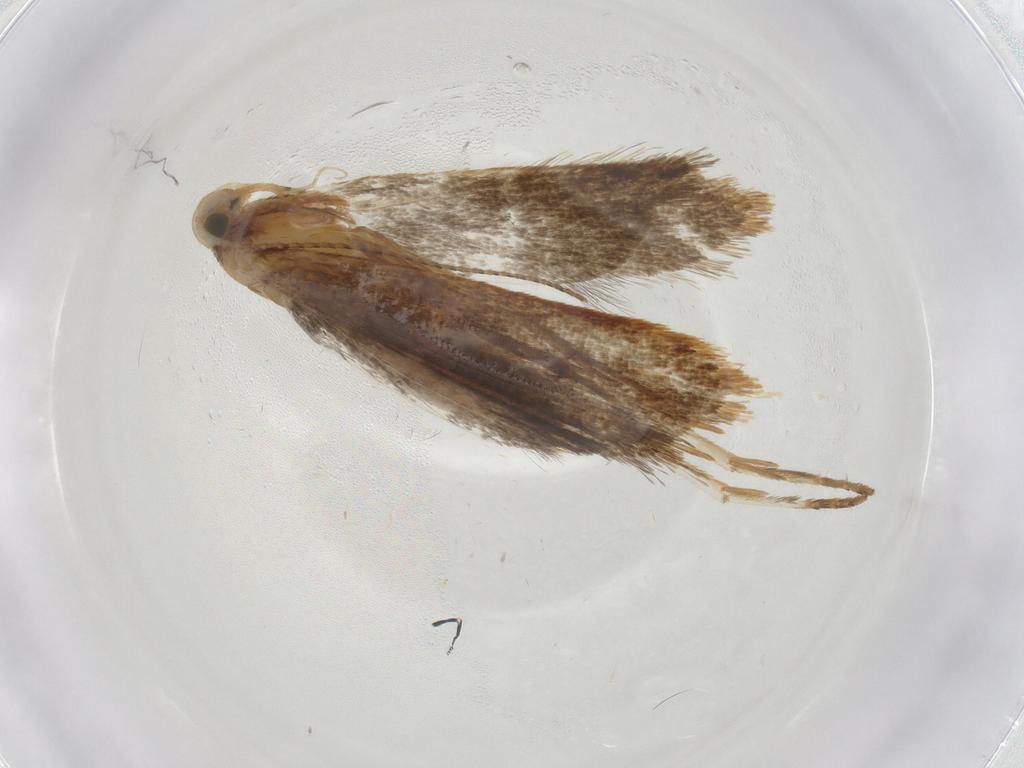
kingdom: Animalia
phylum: Arthropoda
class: Insecta
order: Lepidoptera
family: Gelechiidae
